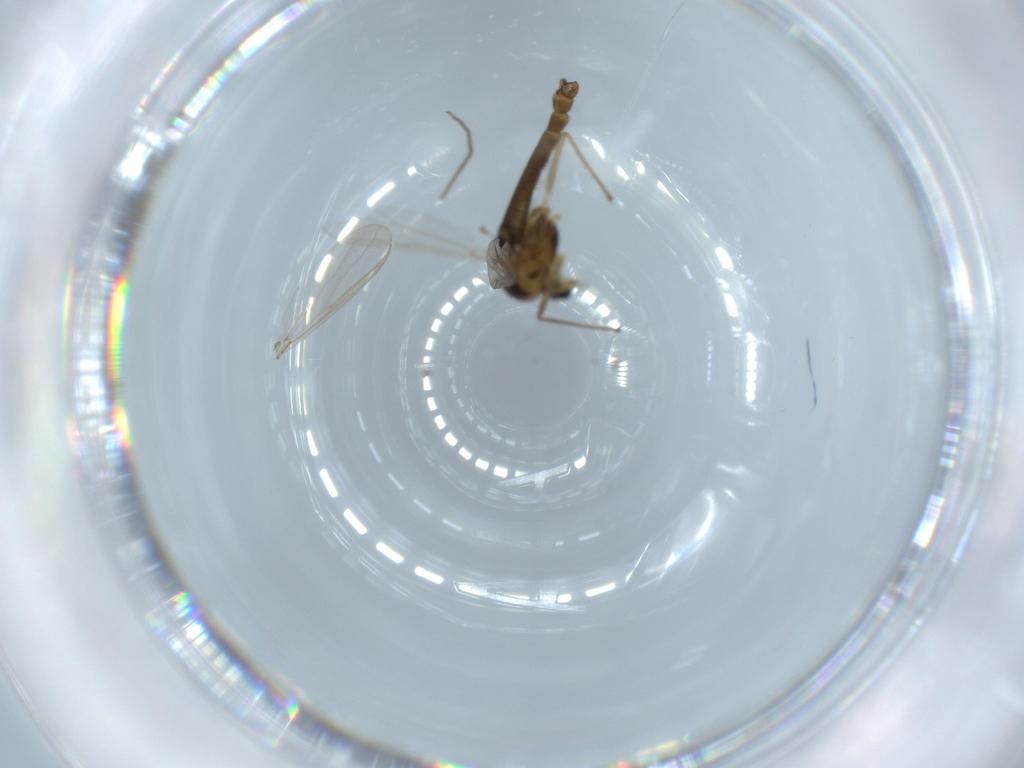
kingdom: Animalia
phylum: Arthropoda
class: Insecta
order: Diptera
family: Chironomidae
